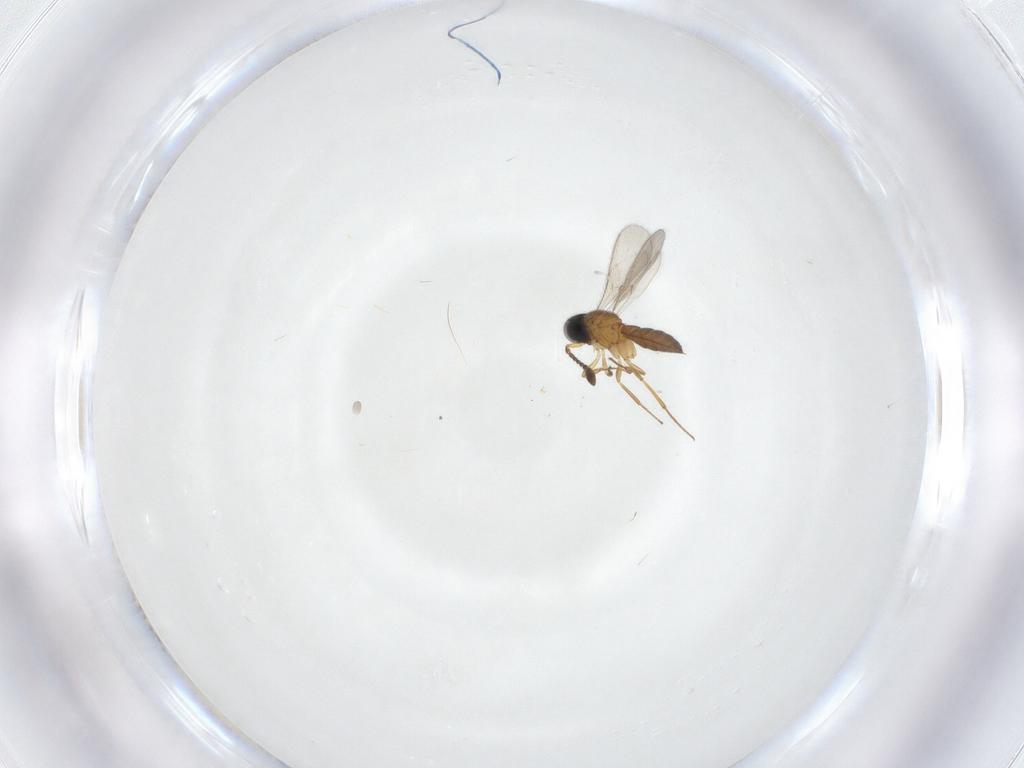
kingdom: Animalia
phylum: Arthropoda
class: Insecta
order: Hymenoptera
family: Scelionidae
